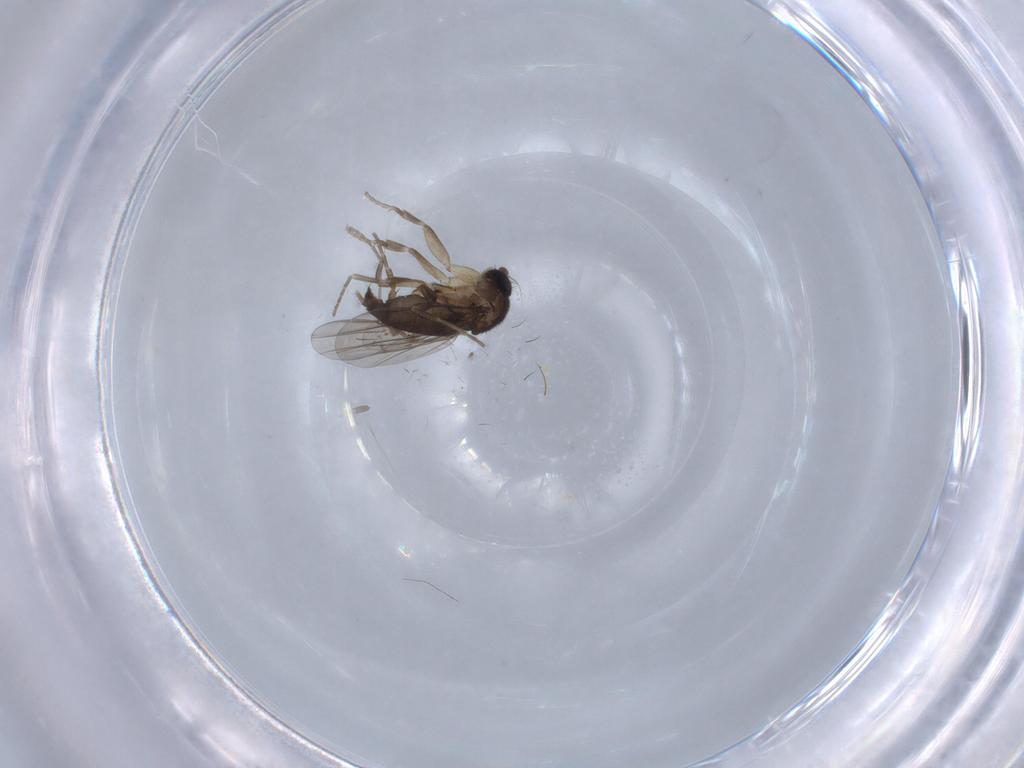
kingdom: Animalia
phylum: Arthropoda
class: Insecta
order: Diptera
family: Phoridae
